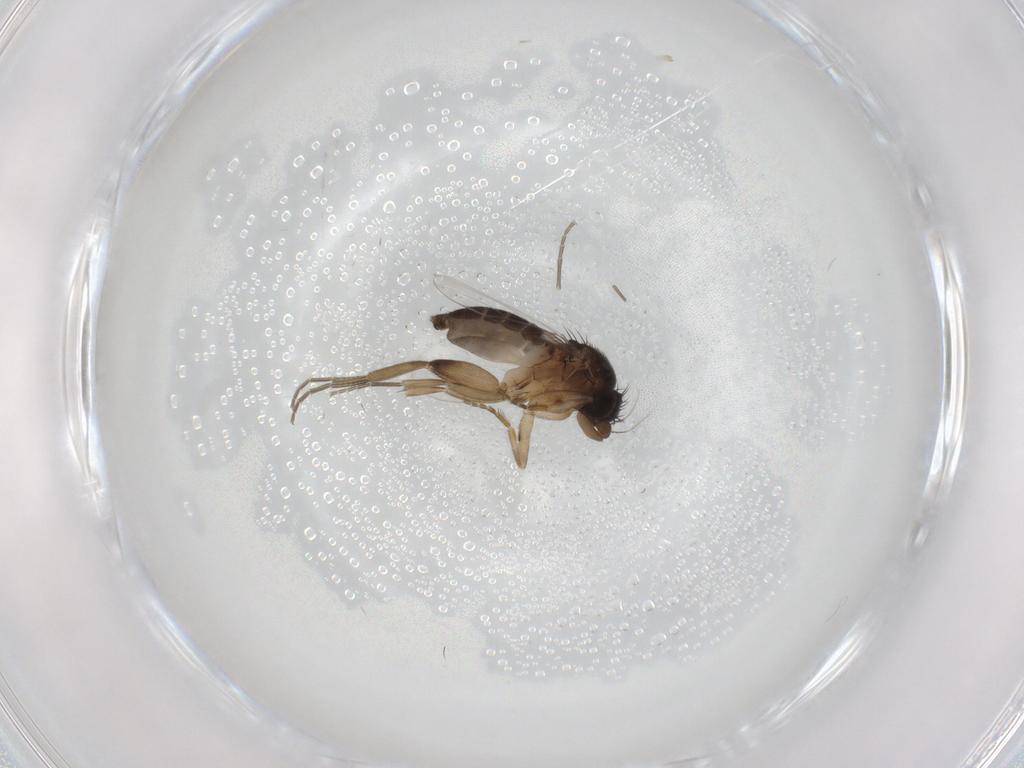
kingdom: Animalia
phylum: Arthropoda
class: Insecta
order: Diptera
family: Phoridae
